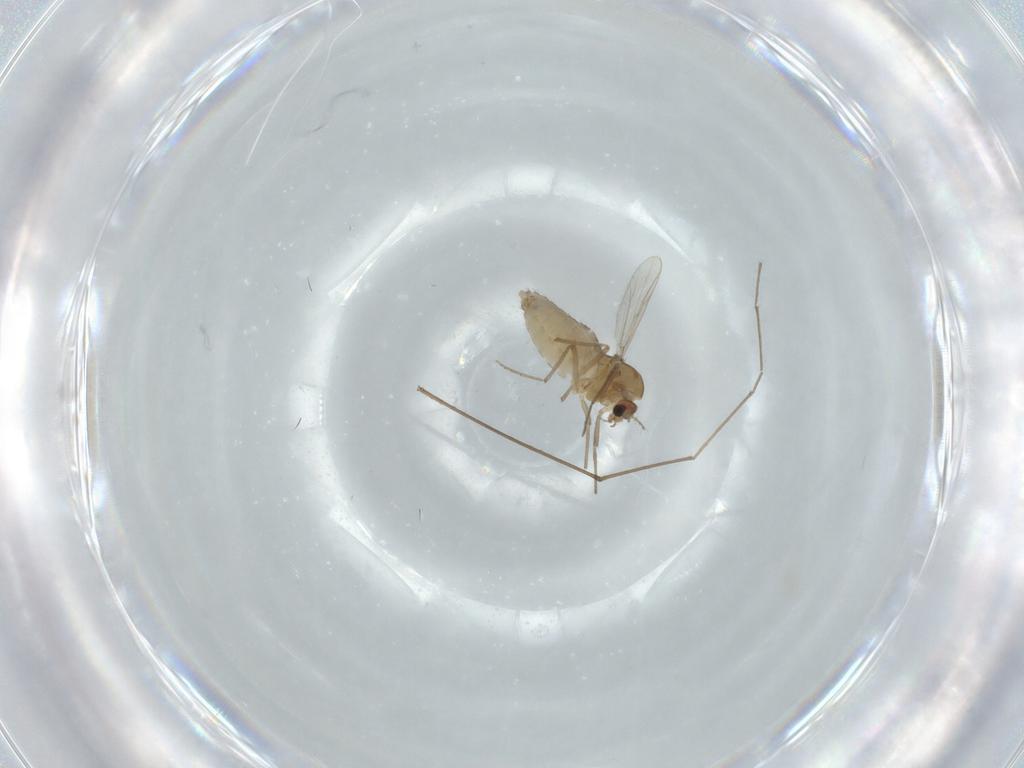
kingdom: Animalia
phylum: Arthropoda
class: Insecta
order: Diptera
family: Chironomidae
